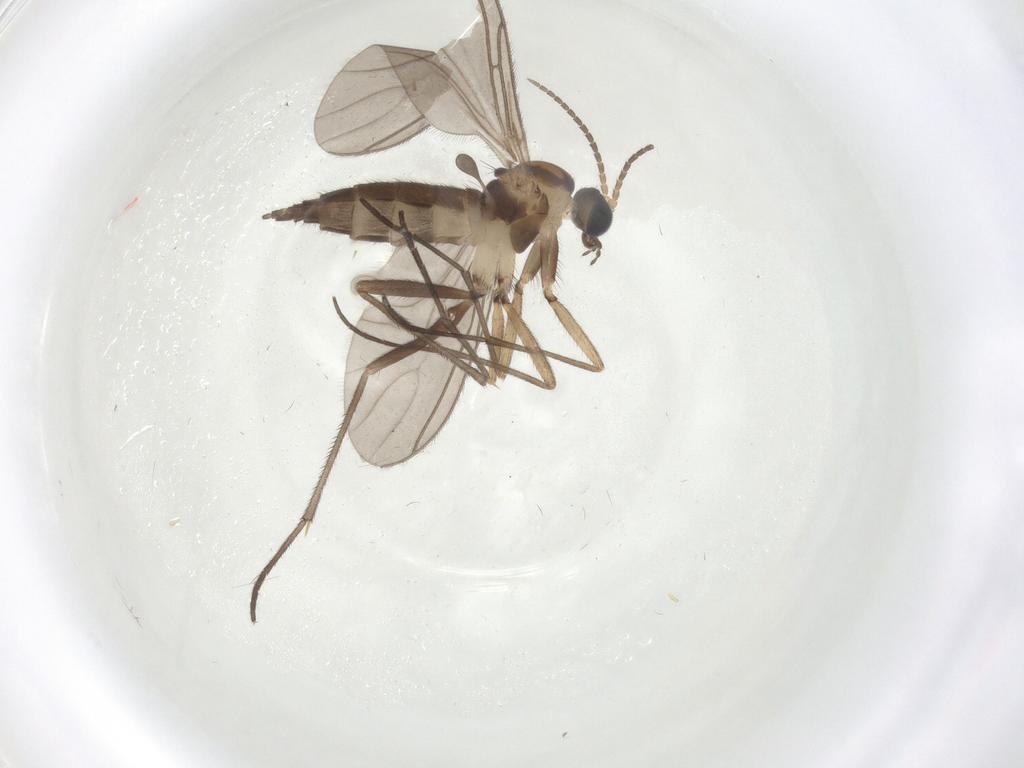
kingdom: Animalia
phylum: Arthropoda
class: Insecta
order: Diptera
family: Sciaridae
